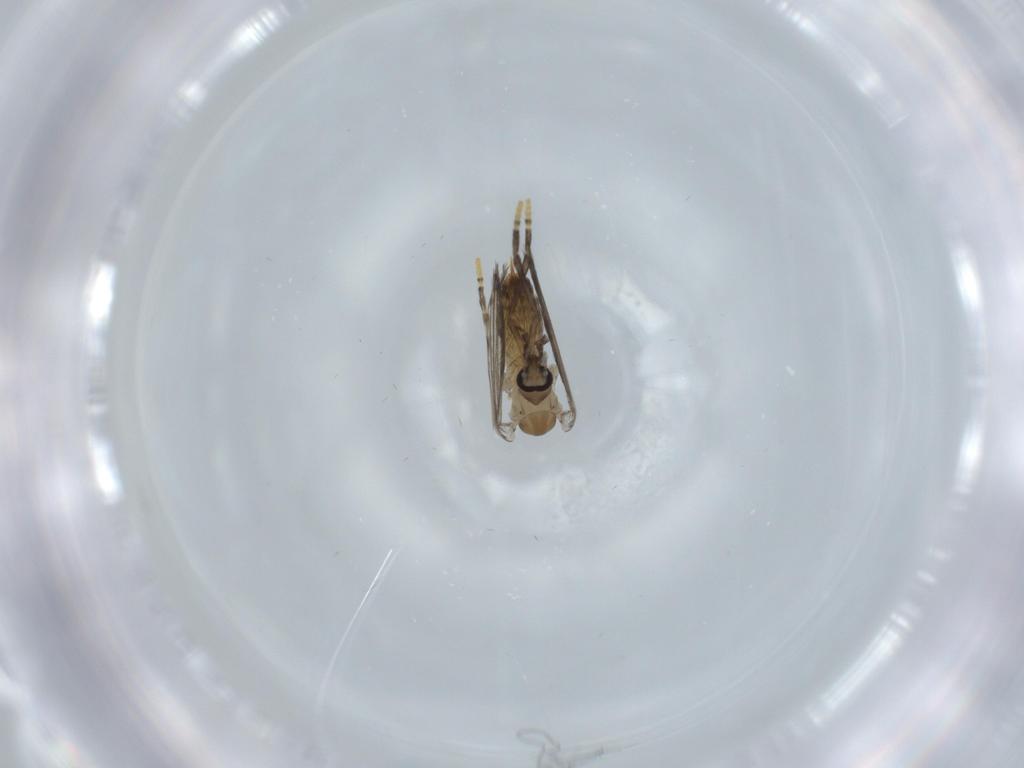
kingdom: Animalia
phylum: Arthropoda
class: Insecta
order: Diptera
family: Psychodidae
